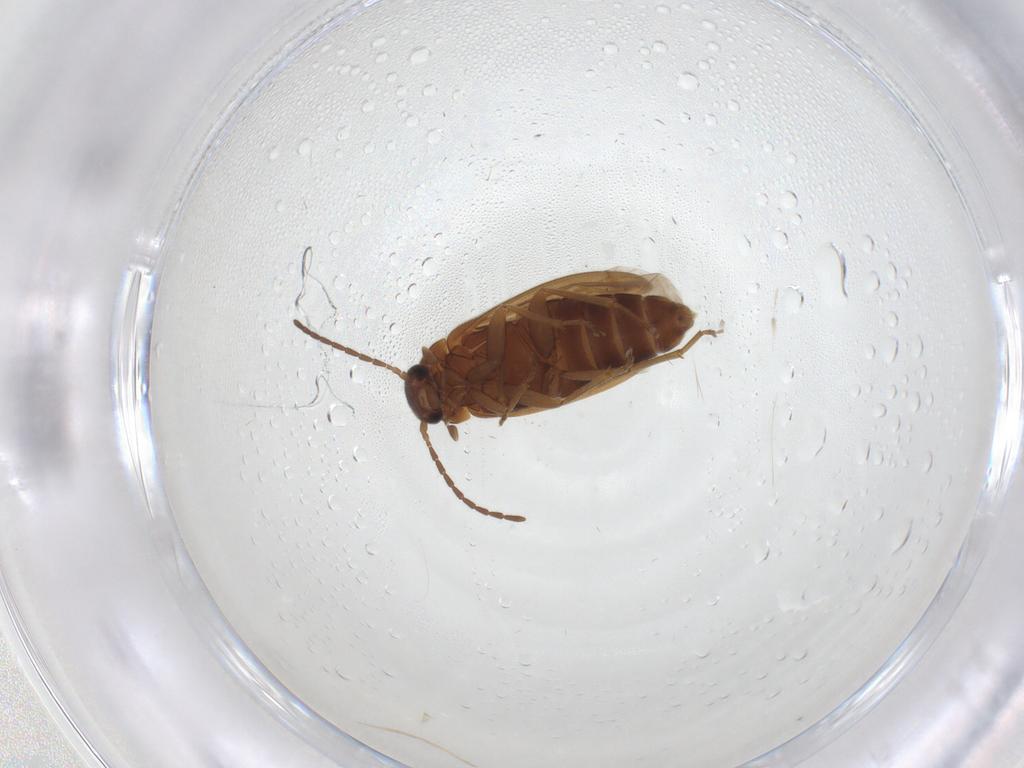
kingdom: Animalia
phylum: Arthropoda
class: Insecta
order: Coleoptera
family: Scraptiidae
